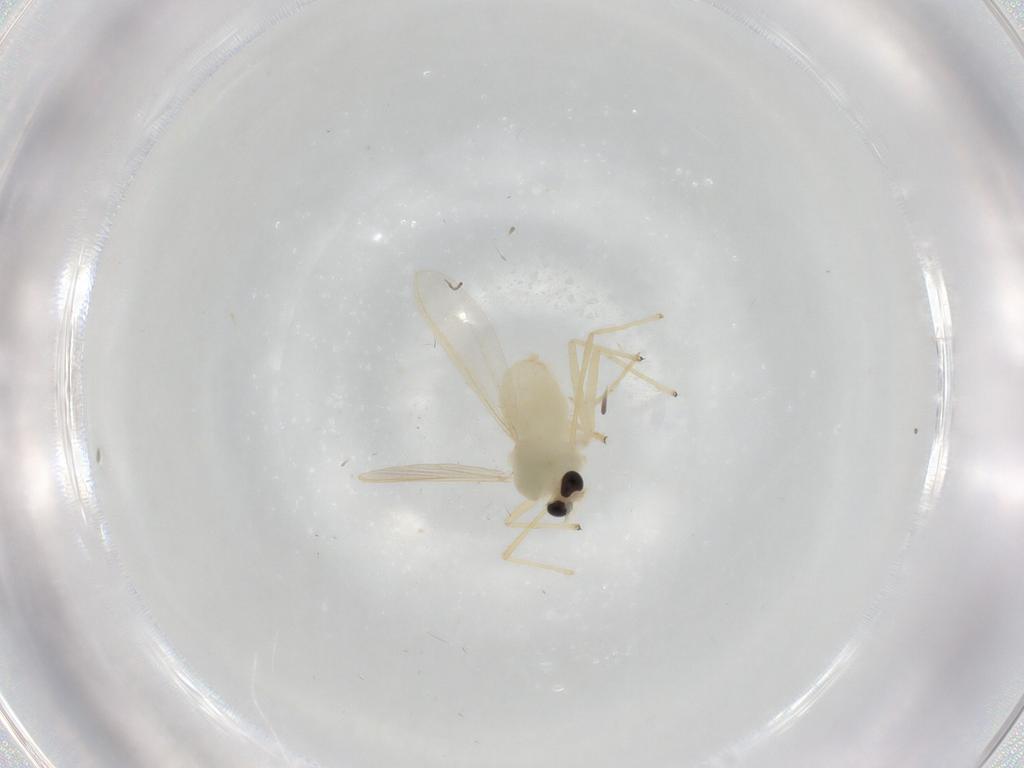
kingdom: Animalia
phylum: Arthropoda
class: Insecta
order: Diptera
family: Chironomidae
